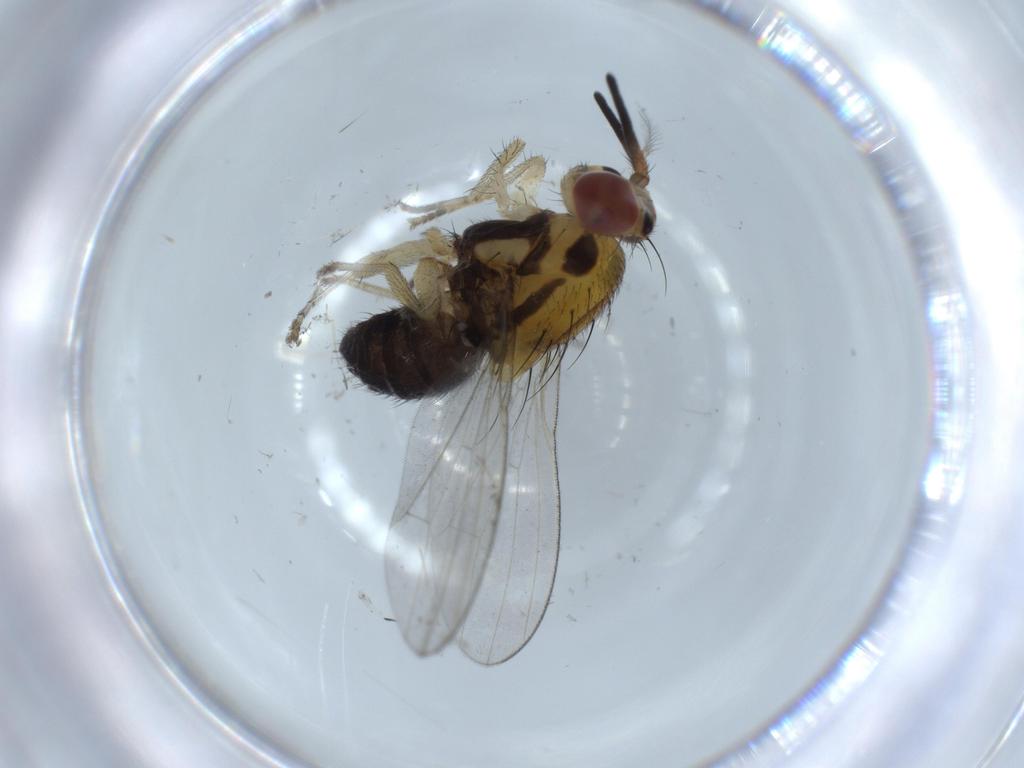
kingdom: Animalia
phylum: Arthropoda
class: Insecta
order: Diptera
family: Lauxaniidae
